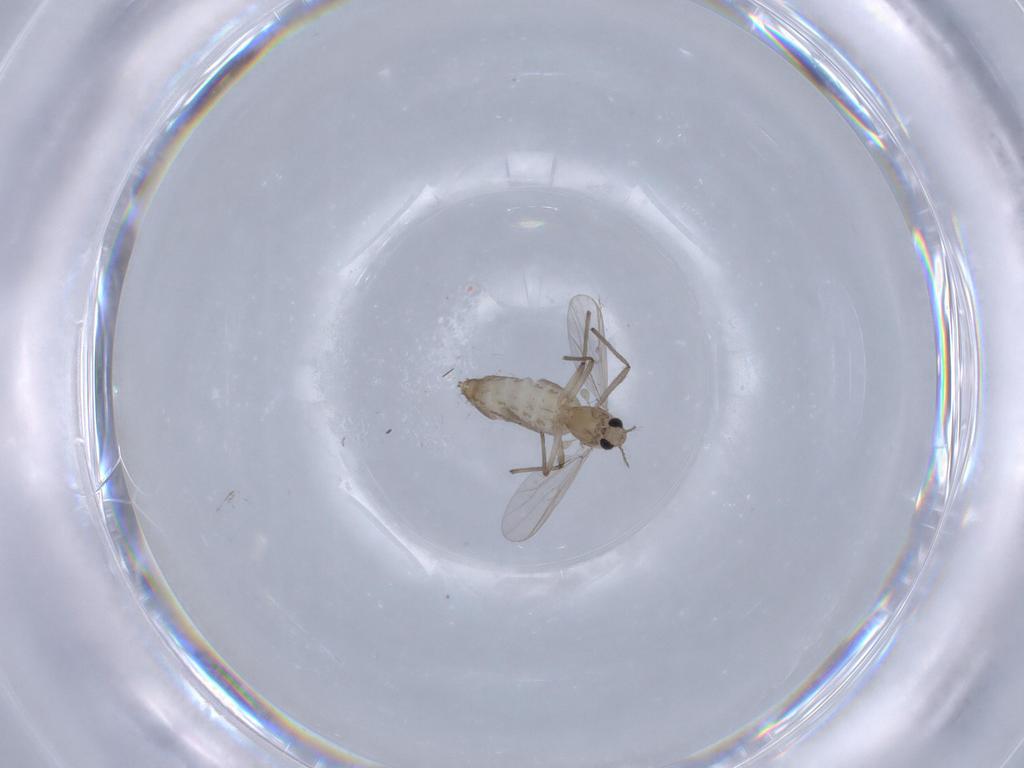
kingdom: Animalia
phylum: Arthropoda
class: Insecta
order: Diptera
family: Chironomidae
